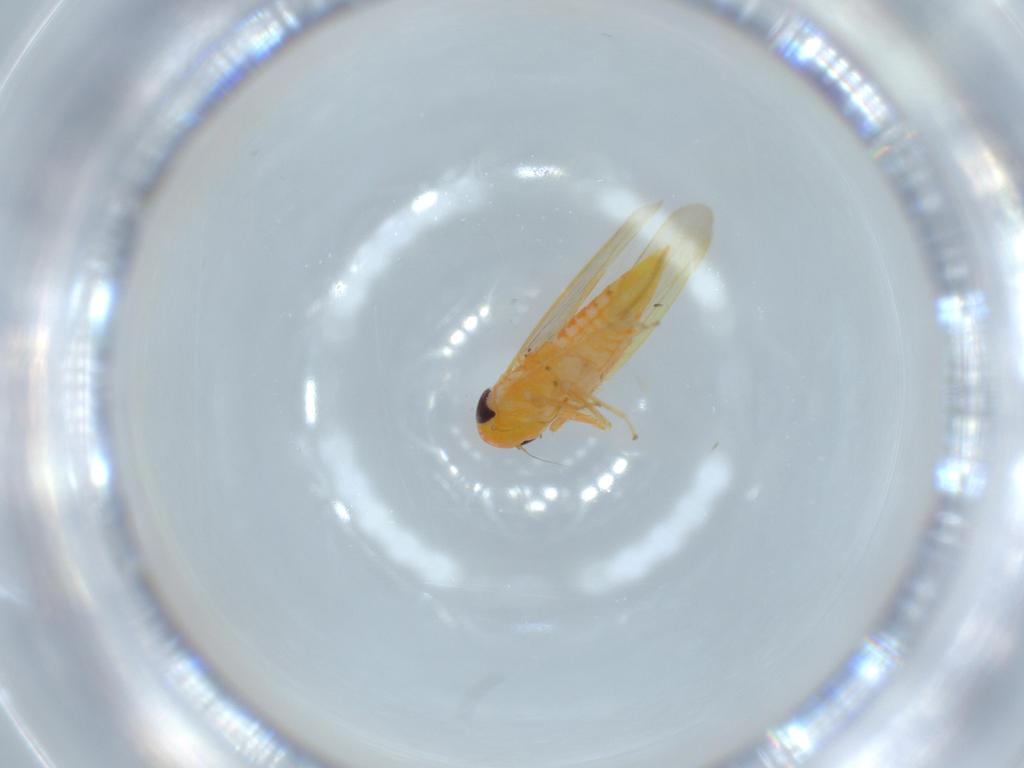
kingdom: Animalia
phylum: Arthropoda
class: Insecta
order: Hemiptera
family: Cicadellidae
